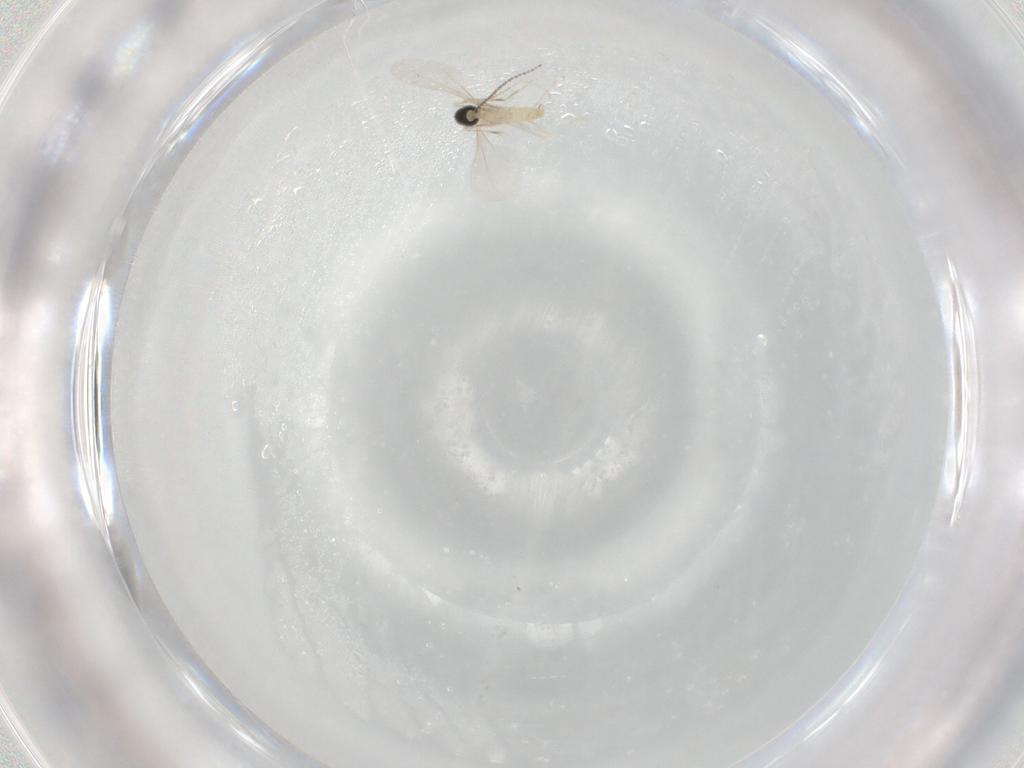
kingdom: Animalia
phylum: Arthropoda
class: Insecta
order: Diptera
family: Cecidomyiidae
